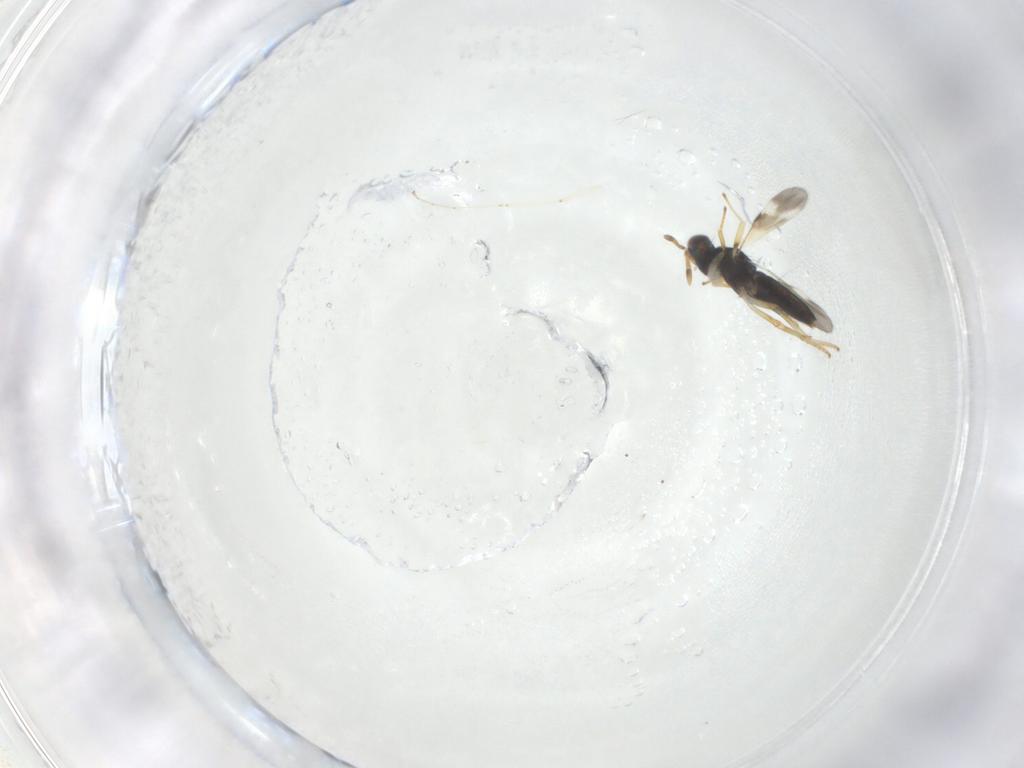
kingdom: Animalia
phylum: Arthropoda
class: Insecta
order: Hymenoptera
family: Encyrtidae
